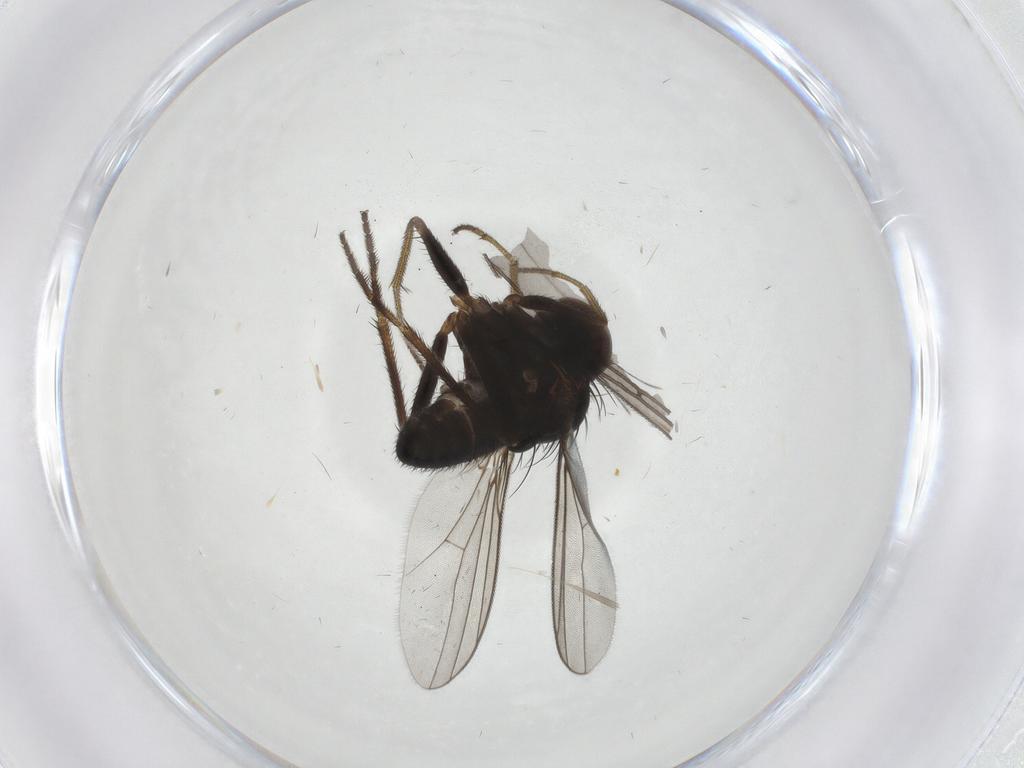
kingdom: Animalia
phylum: Arthropoda
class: Insecta
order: Diptera
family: Dolichopodidae
